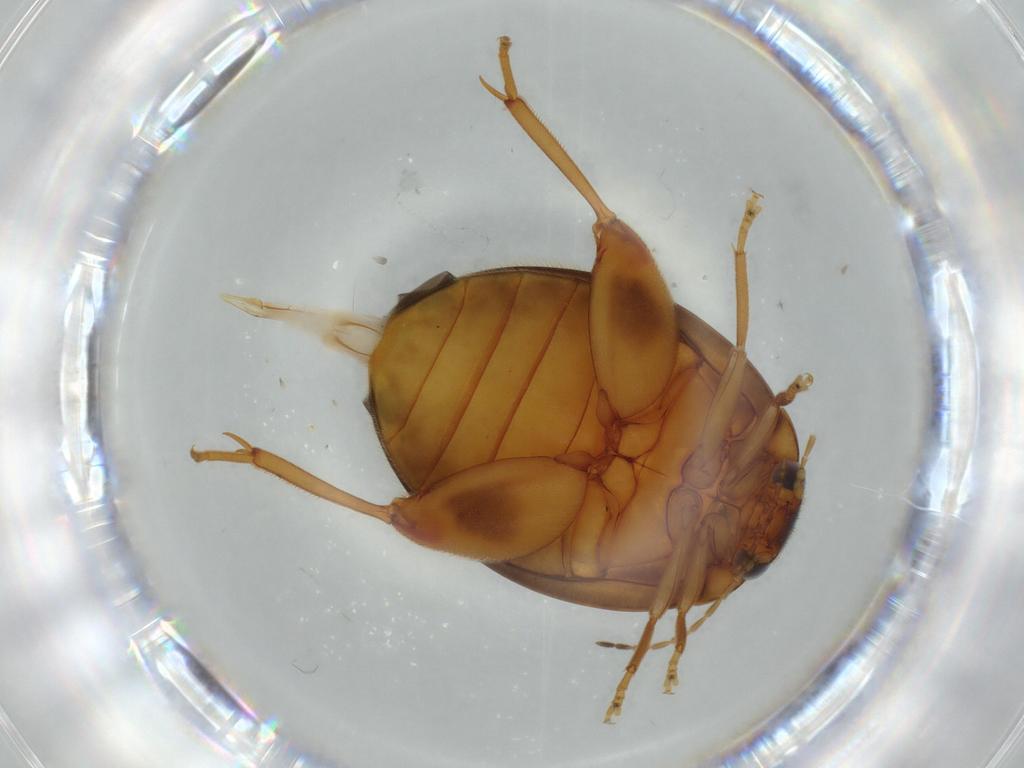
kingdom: Animalia
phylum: Arthropoda
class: Insecta
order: Coleoptera
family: Scirtidae
